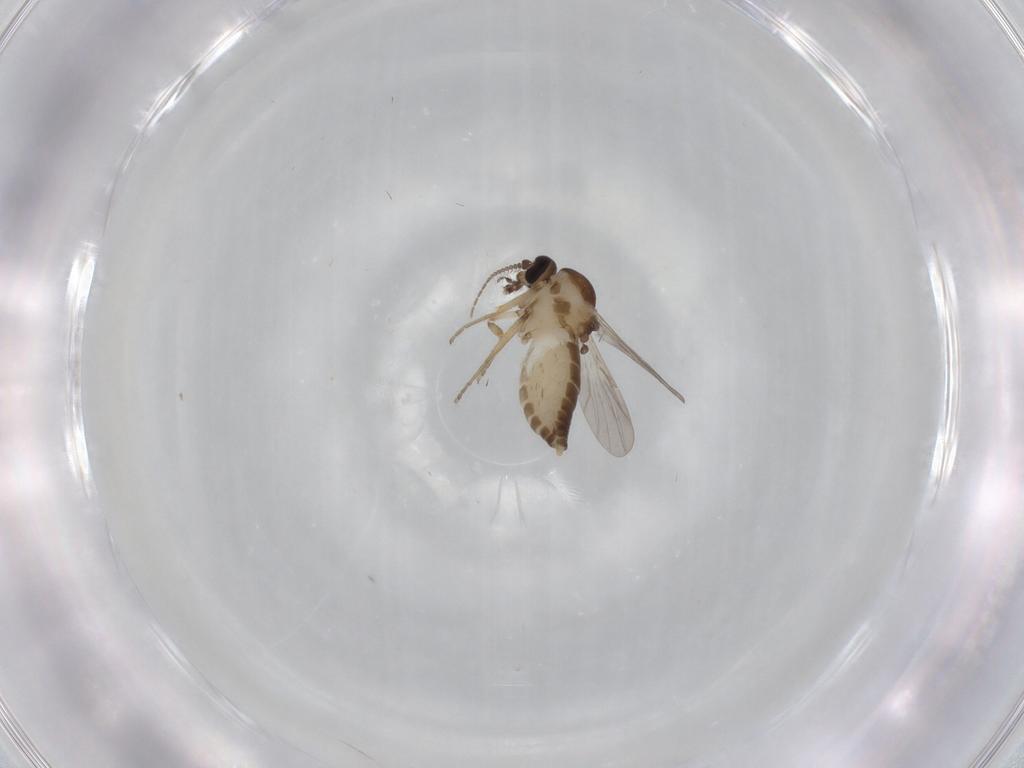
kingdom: Animalia
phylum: Arthropoda
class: Insecta
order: Diptera
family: Ceratopogonidae
